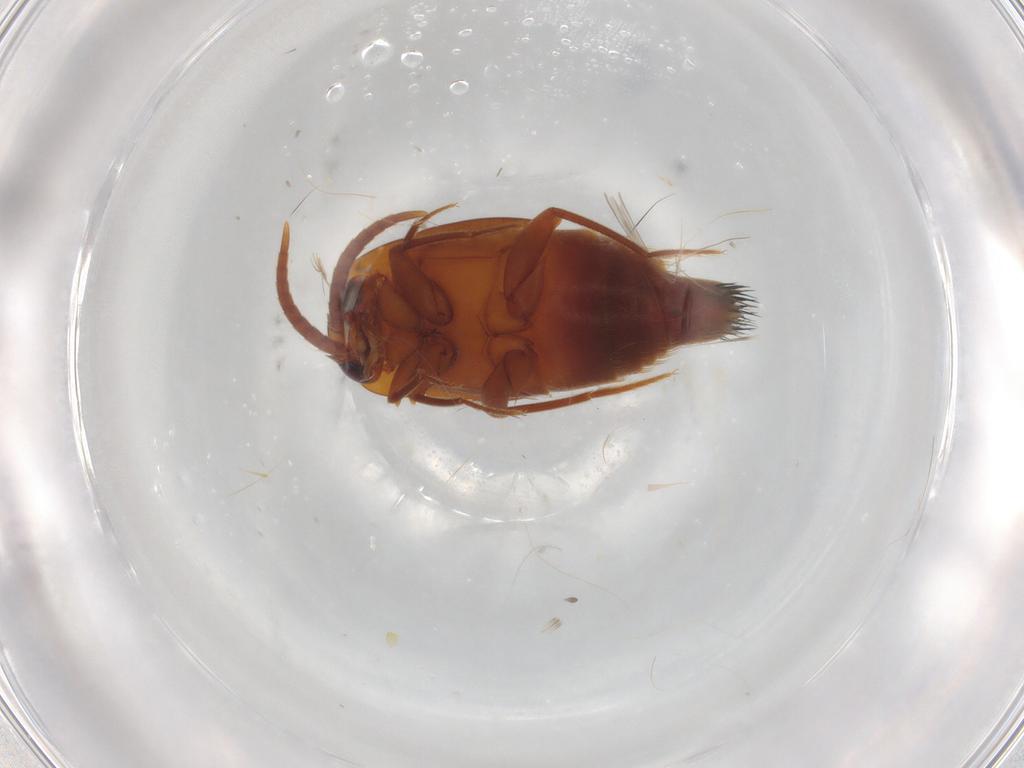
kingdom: Animalia
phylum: Arthropoda
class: Insecta
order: Coleoptera
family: Staphylinidae
